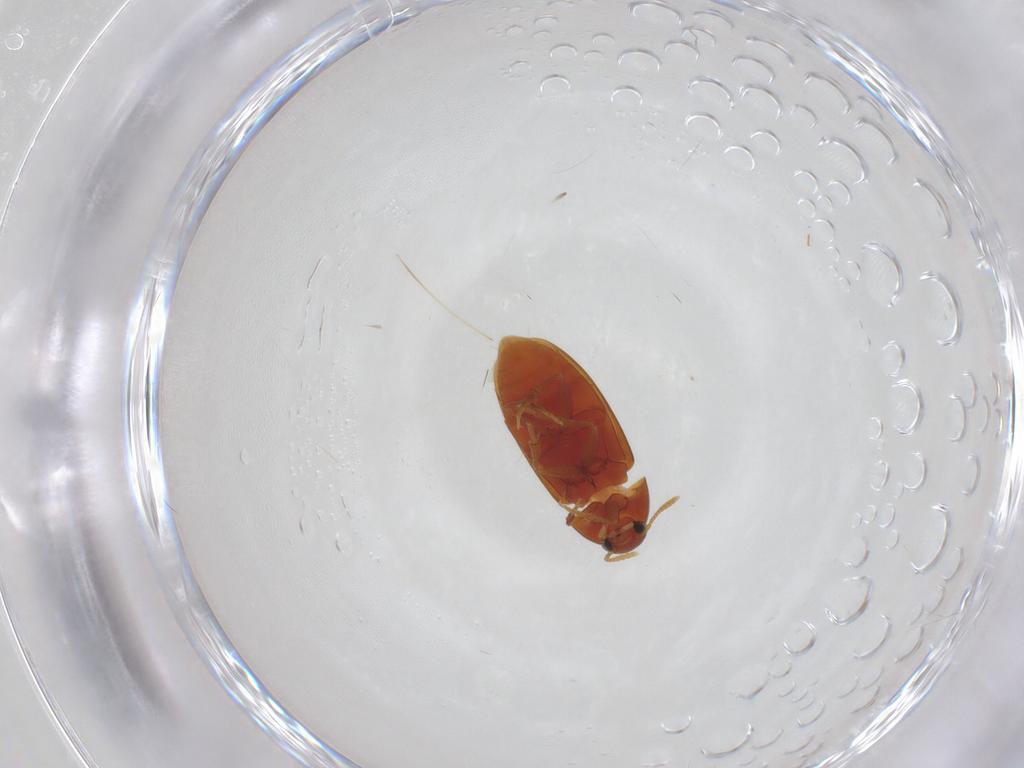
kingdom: Animalia
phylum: Arthropoda
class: Insecta
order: Coleoptera
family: Scraptiidae
